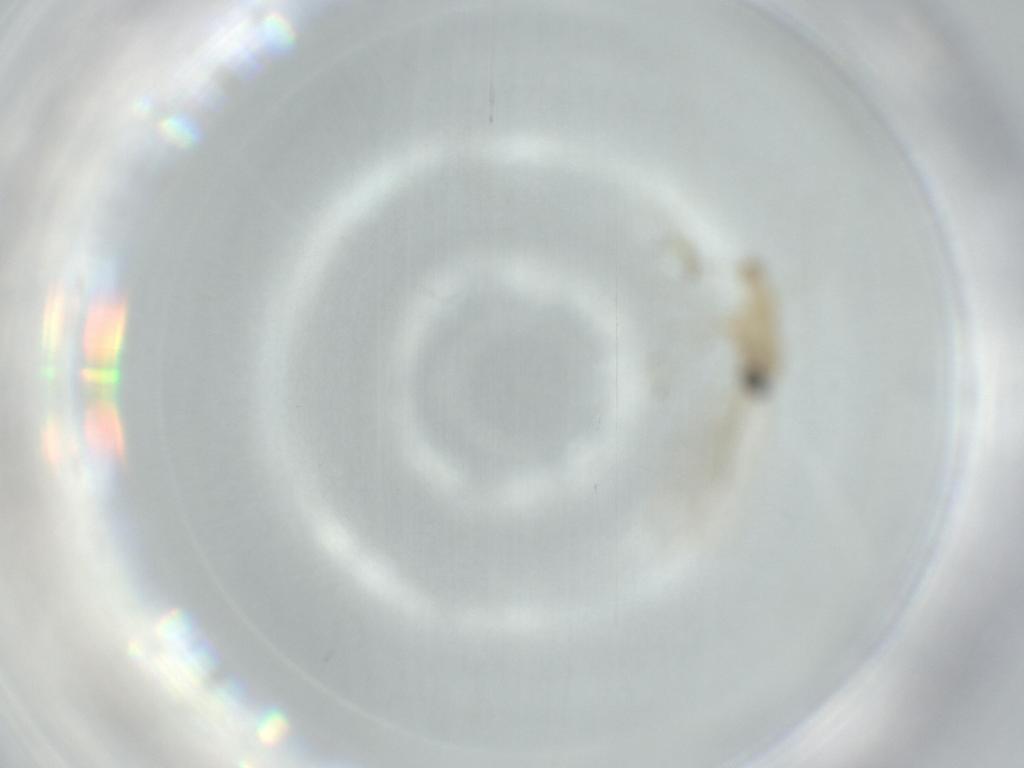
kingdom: Animalia
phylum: Arthropoda
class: Insecta
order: Diptera
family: Cecidomyiidae
